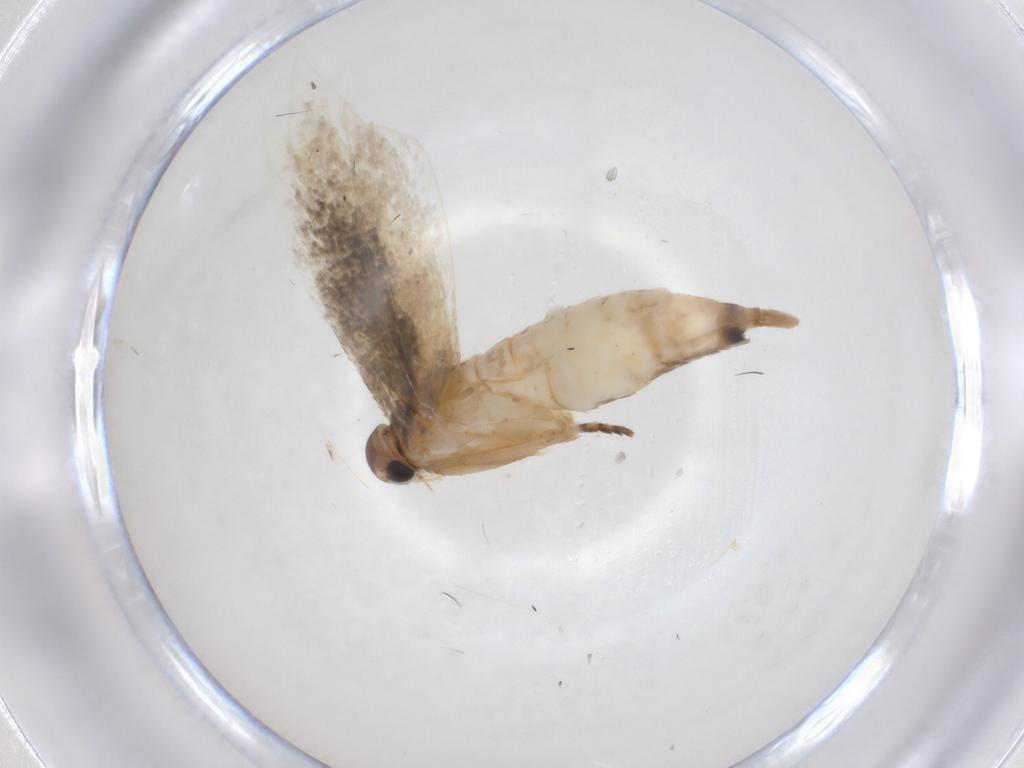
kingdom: Animalia
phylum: Arthropoda
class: Insecta
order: Lepidoptera
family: Gelechiidae
